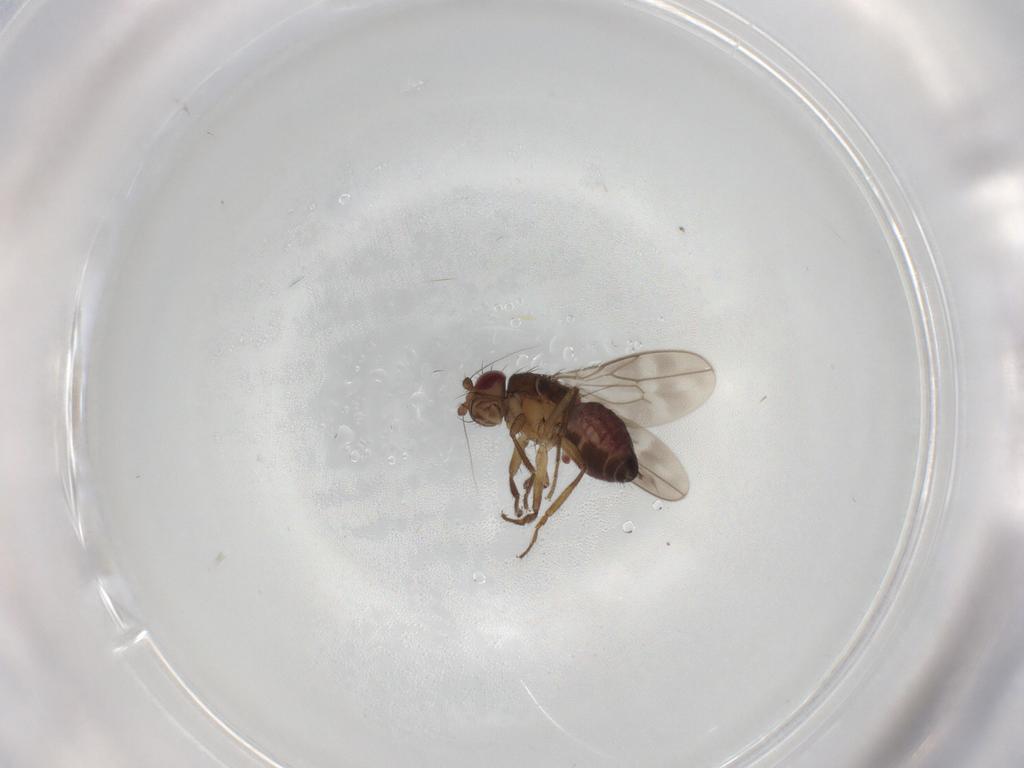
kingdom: Animalia
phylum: Arthropoda
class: Insecta
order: Diptera
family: Sphaeroceridae
